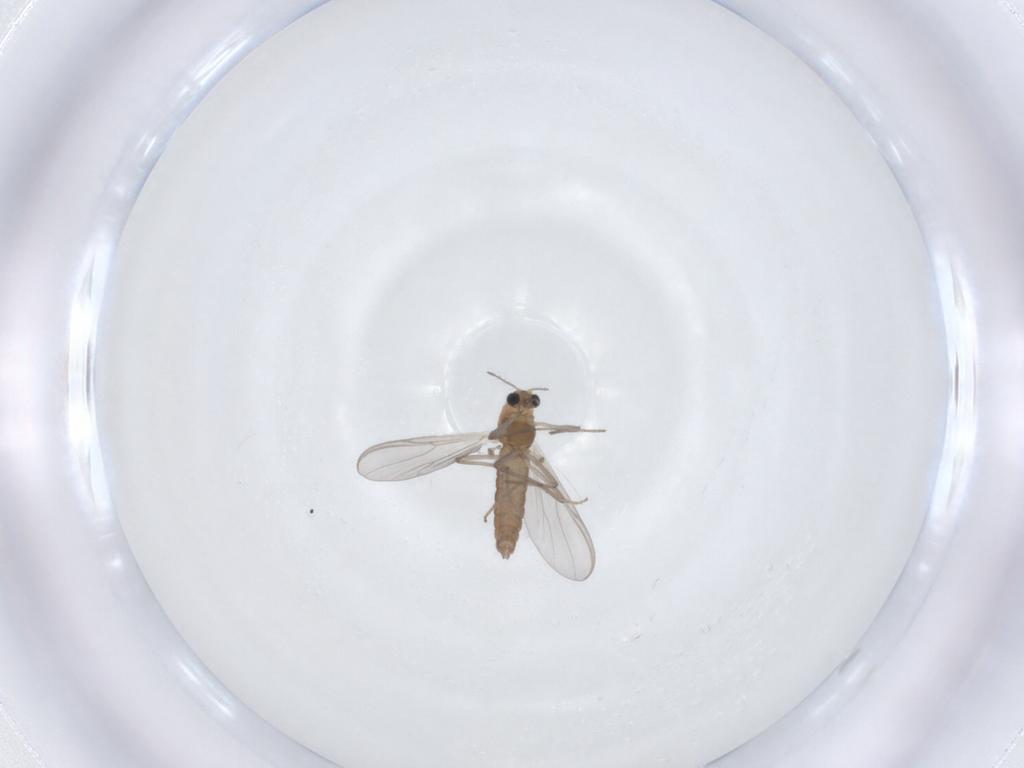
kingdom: Animalia
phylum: Arthropoda
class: Insecta
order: Diptera
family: Chironomidae
